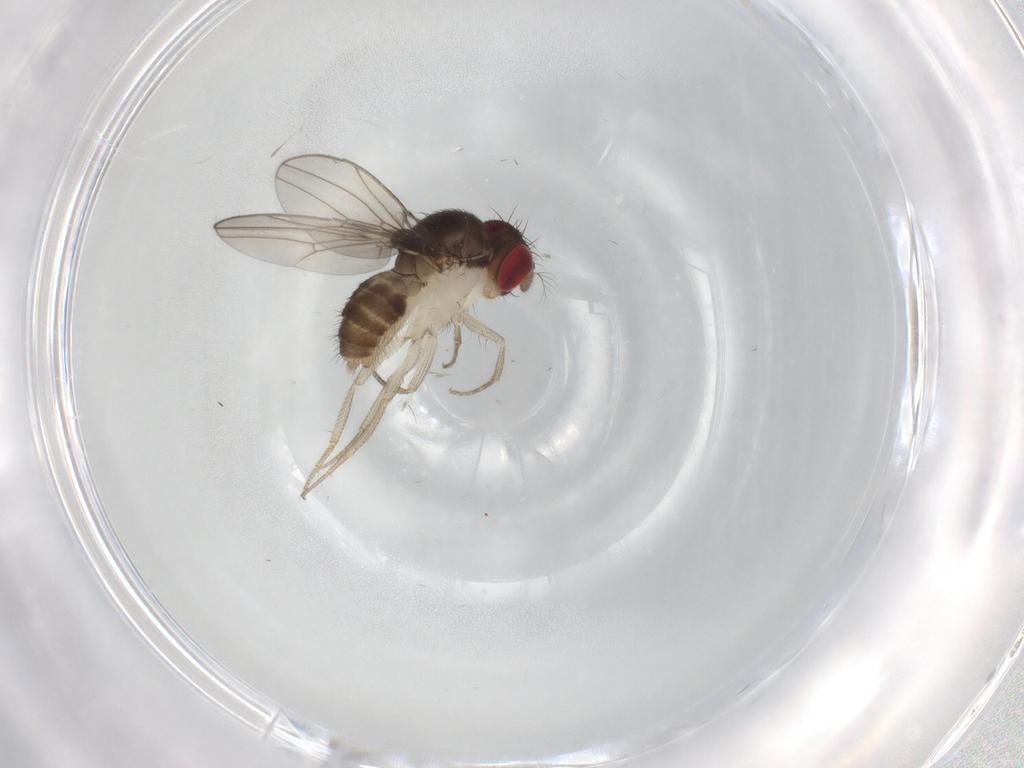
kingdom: Animalia
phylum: Arthropoda
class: Insecta
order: Diptera
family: Drosophilidae
